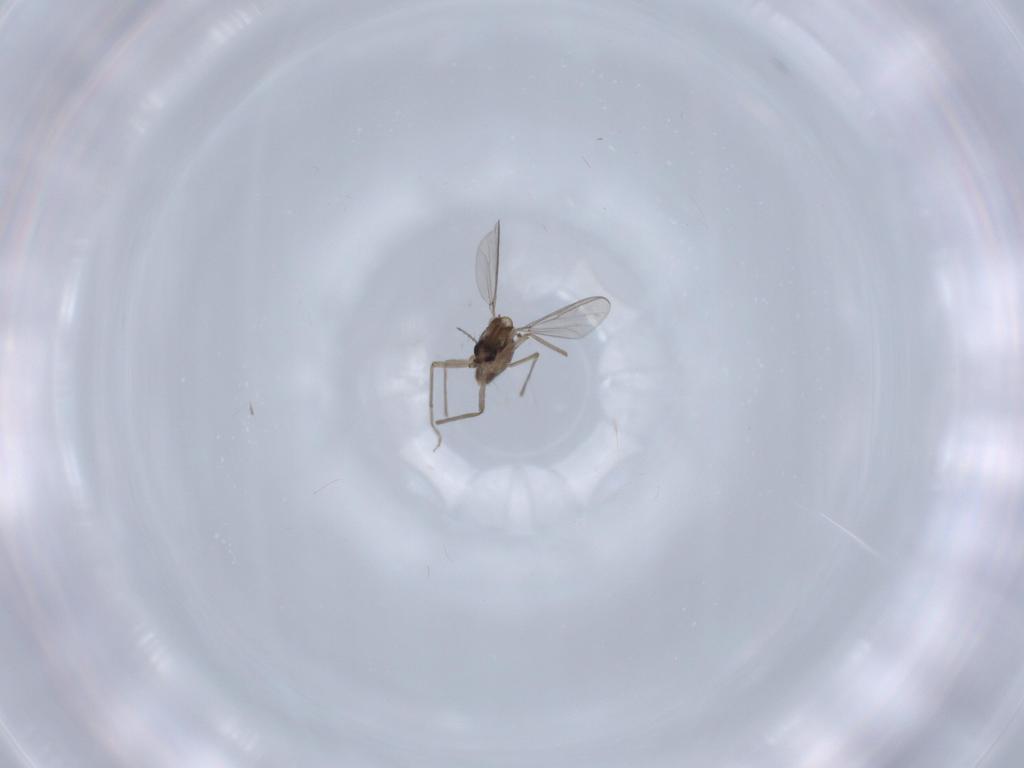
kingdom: Animalia
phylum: Arthropoda
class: Insecta
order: Diptera
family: Chironomidae
